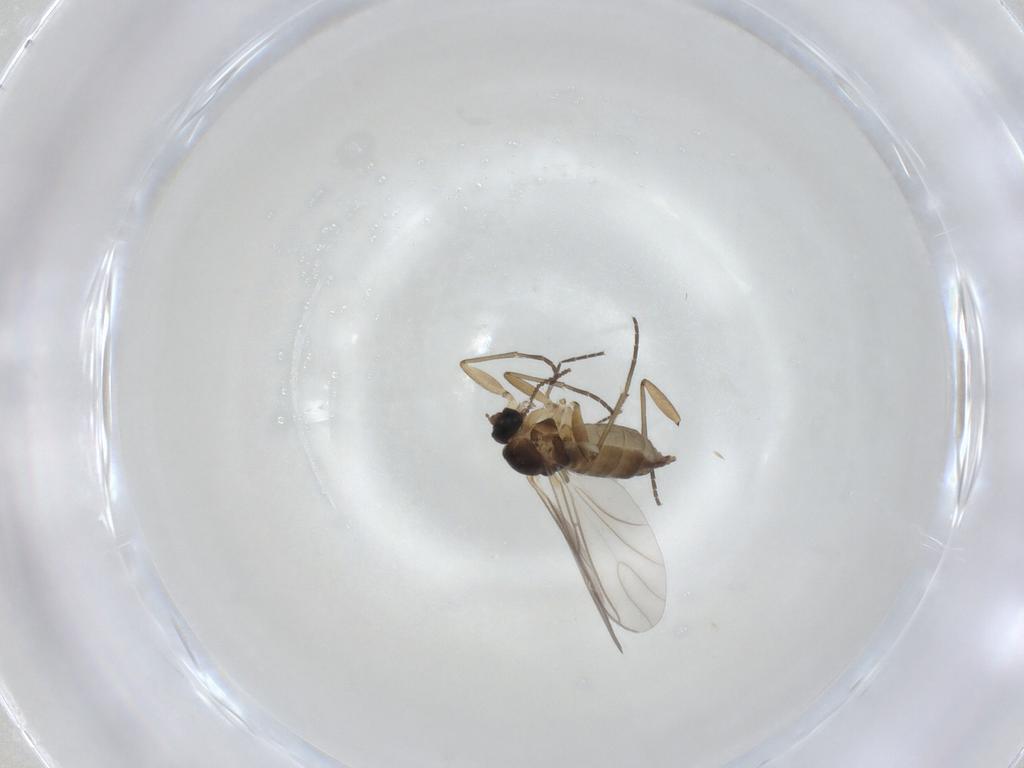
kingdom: Animalia
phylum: Arthropoda
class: Insecta
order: Diptera
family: Cecidomyiidae
